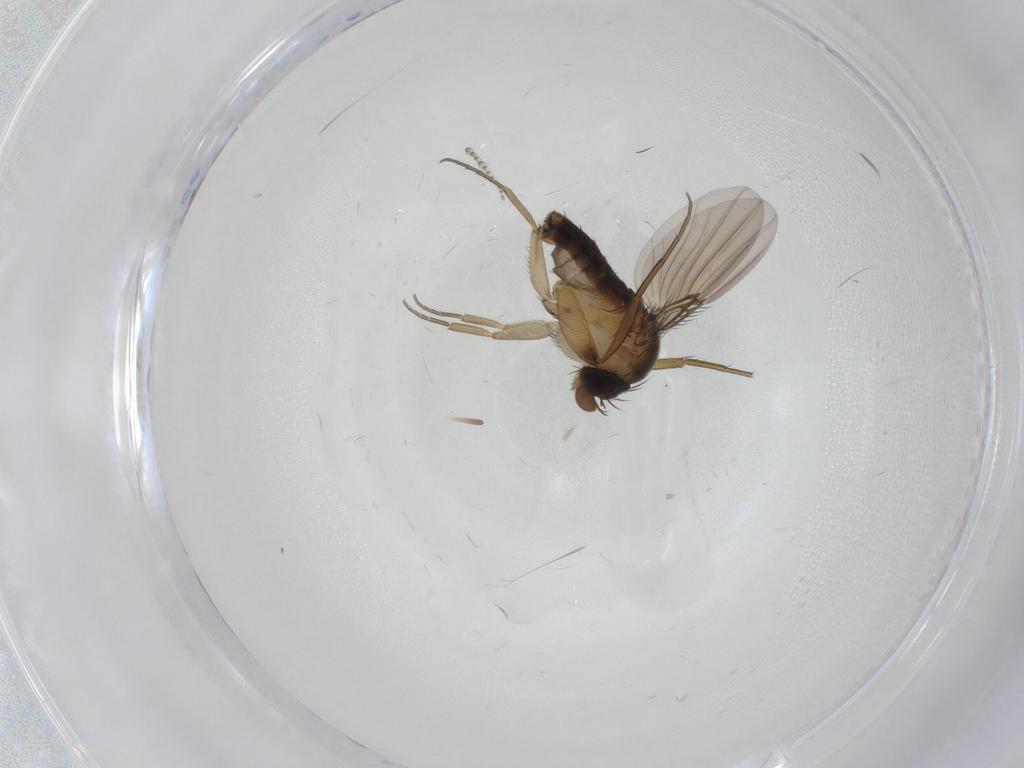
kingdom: Animalia
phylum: Arthropoda
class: Insecta
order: Diptera
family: Phoridae
